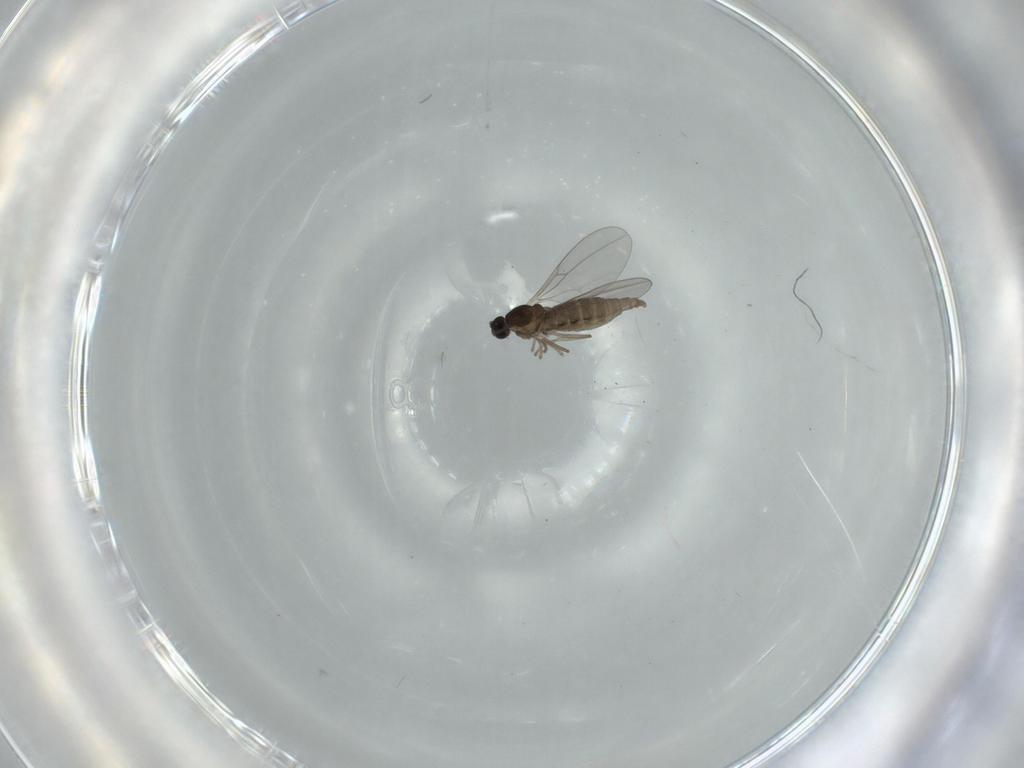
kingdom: Animalia
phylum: Arthropoda
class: Insecta
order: Diptera
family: Cecidomyiidae
